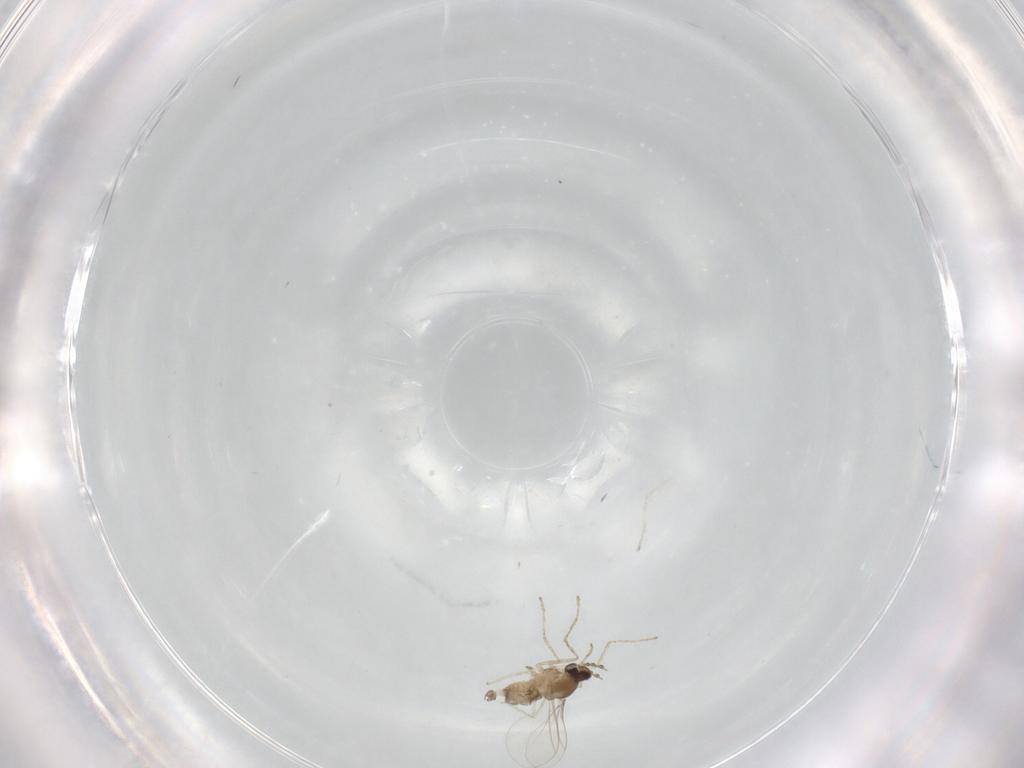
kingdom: Animalia
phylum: Arthropoda
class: Insecta
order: Diptera
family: Cecidomyiidae
